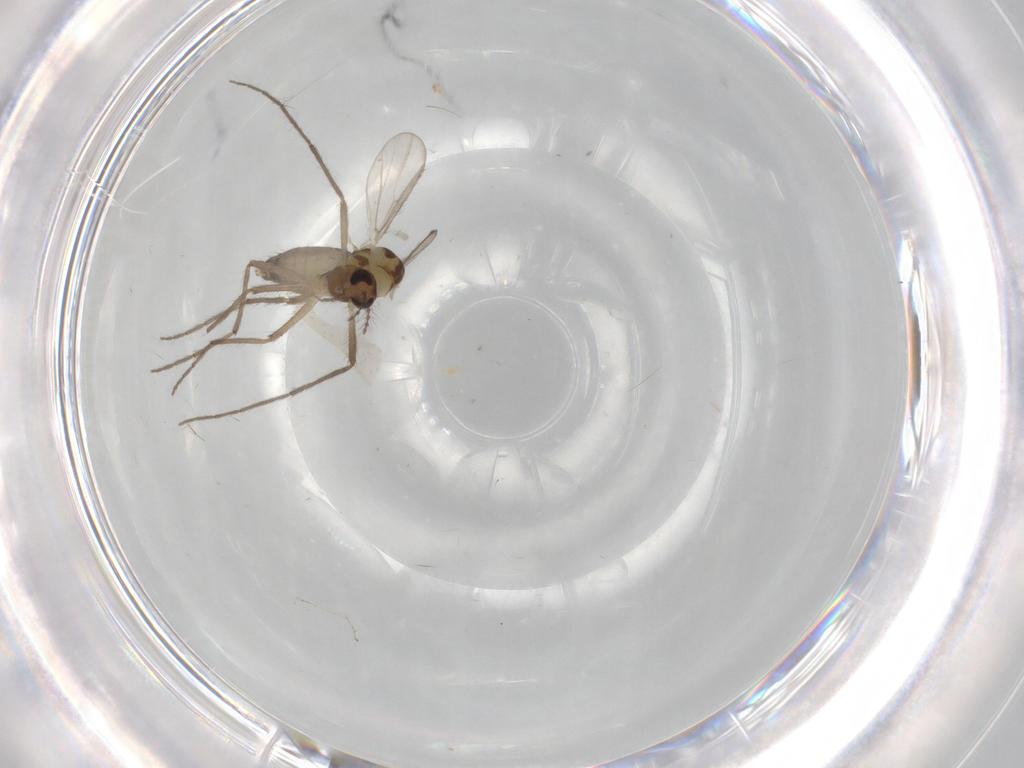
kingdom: Animalia
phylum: Arthropoda
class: Insecta
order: Diptera
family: Chironomidae
